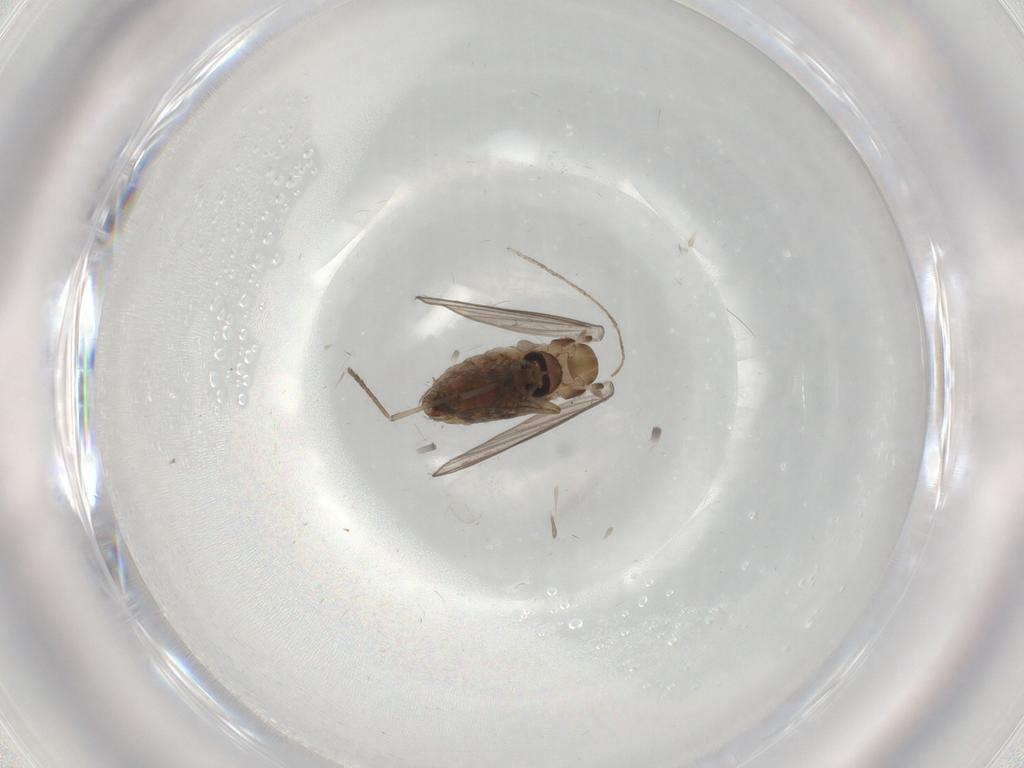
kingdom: Animalia
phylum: Arthropoda
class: Insecta
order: Diptera
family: Psychodidae
